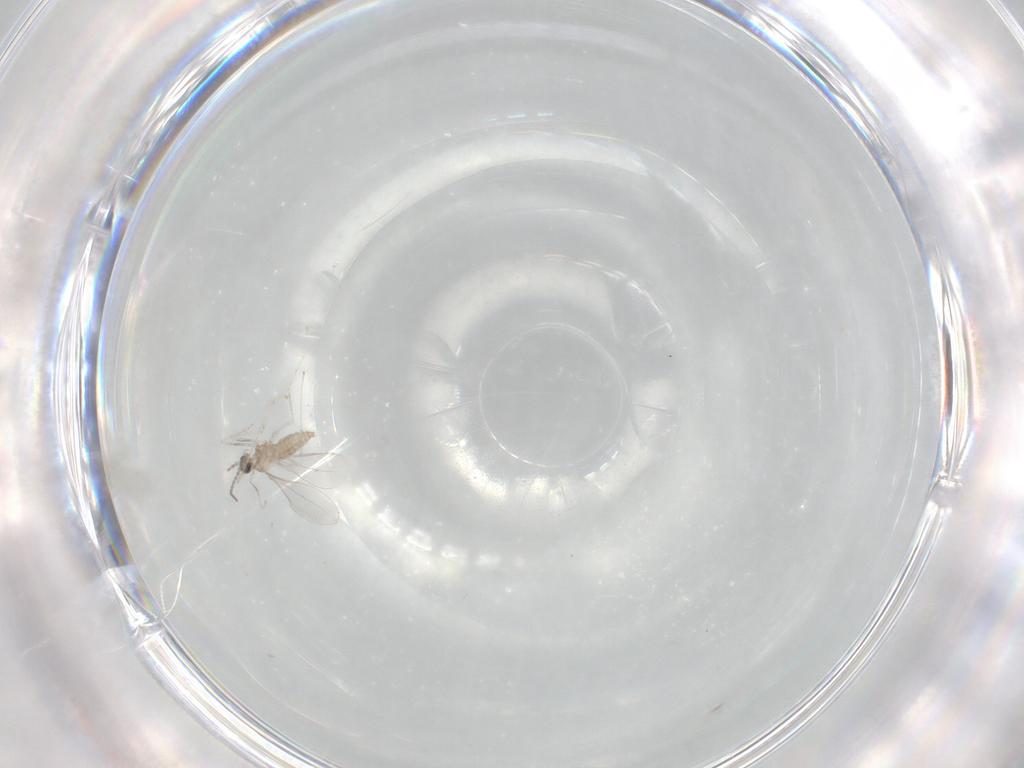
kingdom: Animalia
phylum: Arthropoda
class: Insecta
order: Diptera
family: Cecidomyiidae
